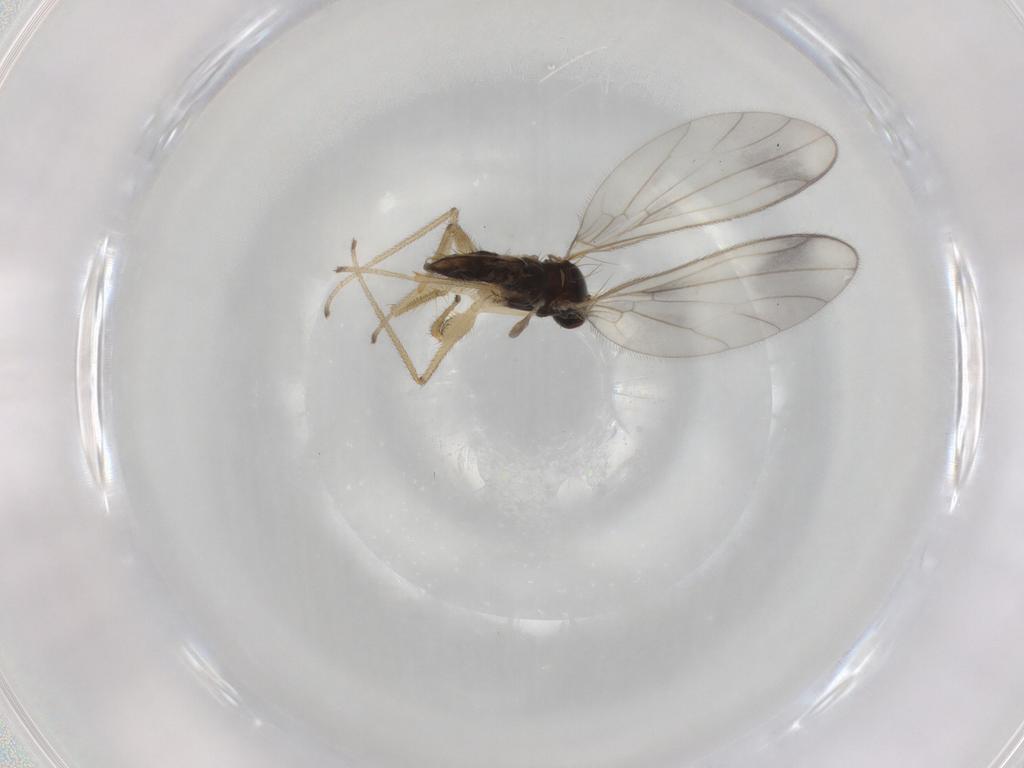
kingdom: Animalia
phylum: Arthropoda
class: Insecta
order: Diptera
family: Empididae
